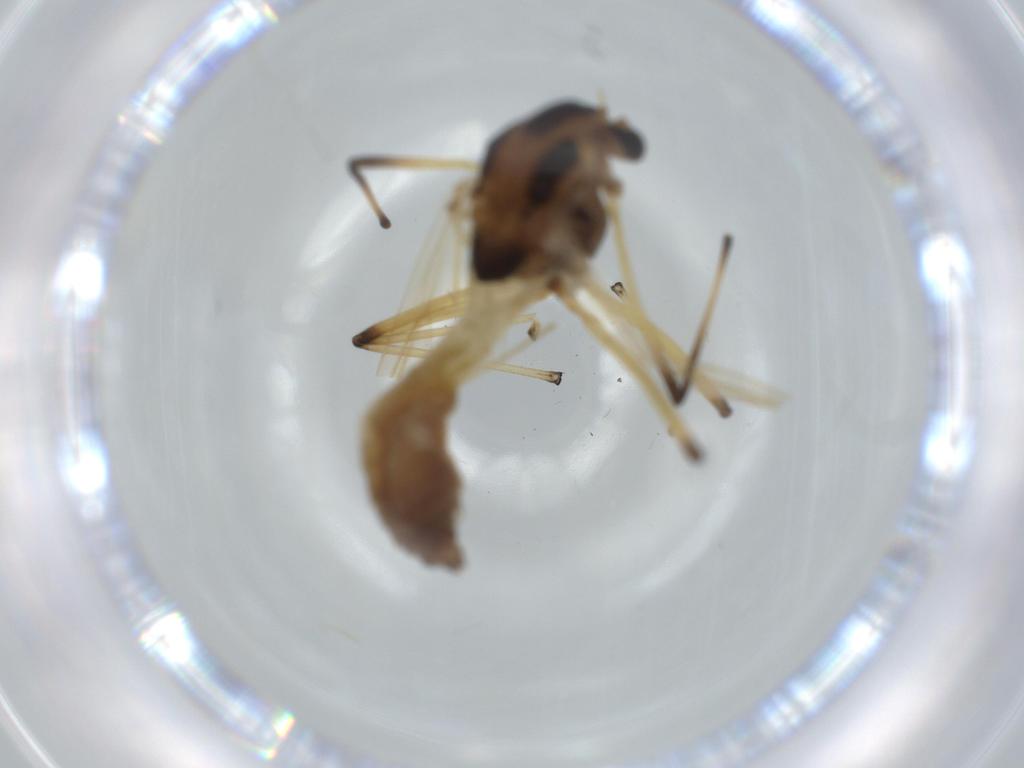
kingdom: Animalia
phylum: Arthropoda
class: Insecta
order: Diptera
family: Chironomidae
